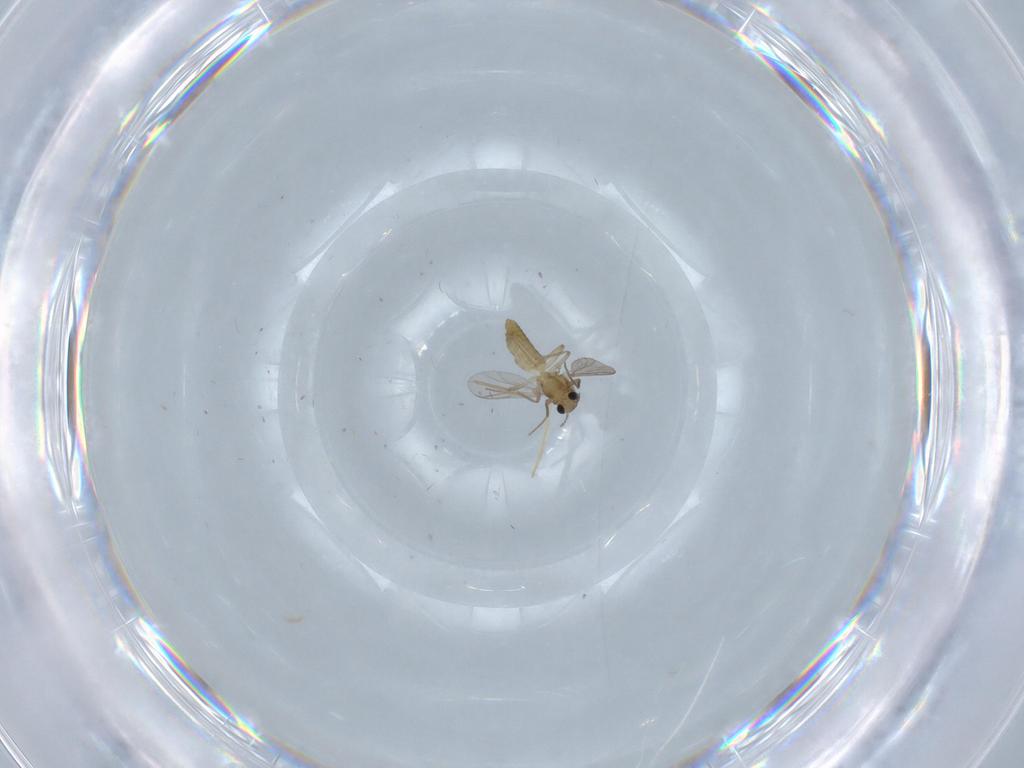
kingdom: Animalia
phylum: Arthropoda
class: Insecta
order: Diptera
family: Chironomidae
